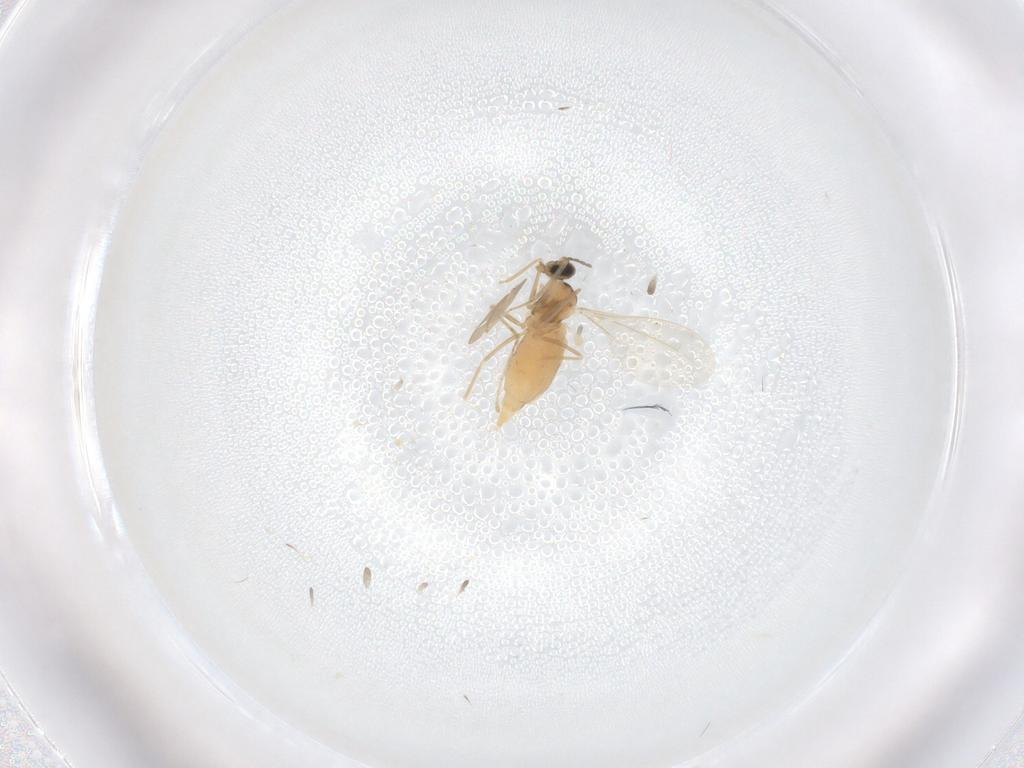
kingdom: Animalia
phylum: Arthropoda
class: Insecta
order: Diptera
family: Cecidomyiidae
